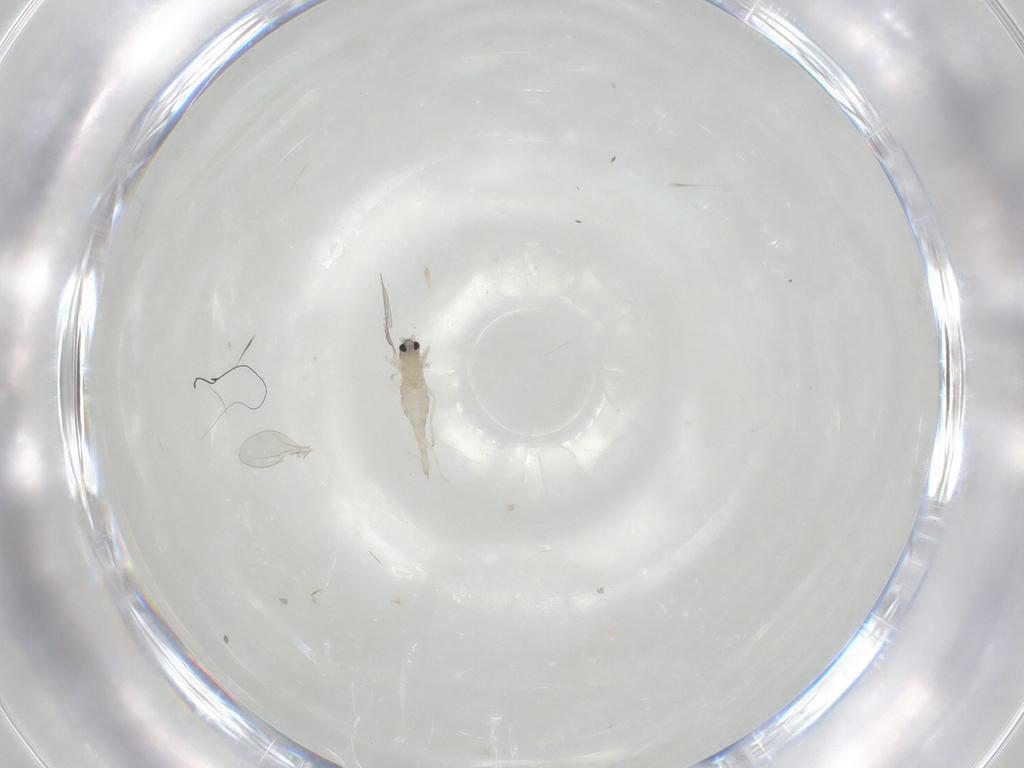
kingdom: Animalia
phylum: Arthropoda
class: Insecta
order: Diptera
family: Cecidomyiidae
